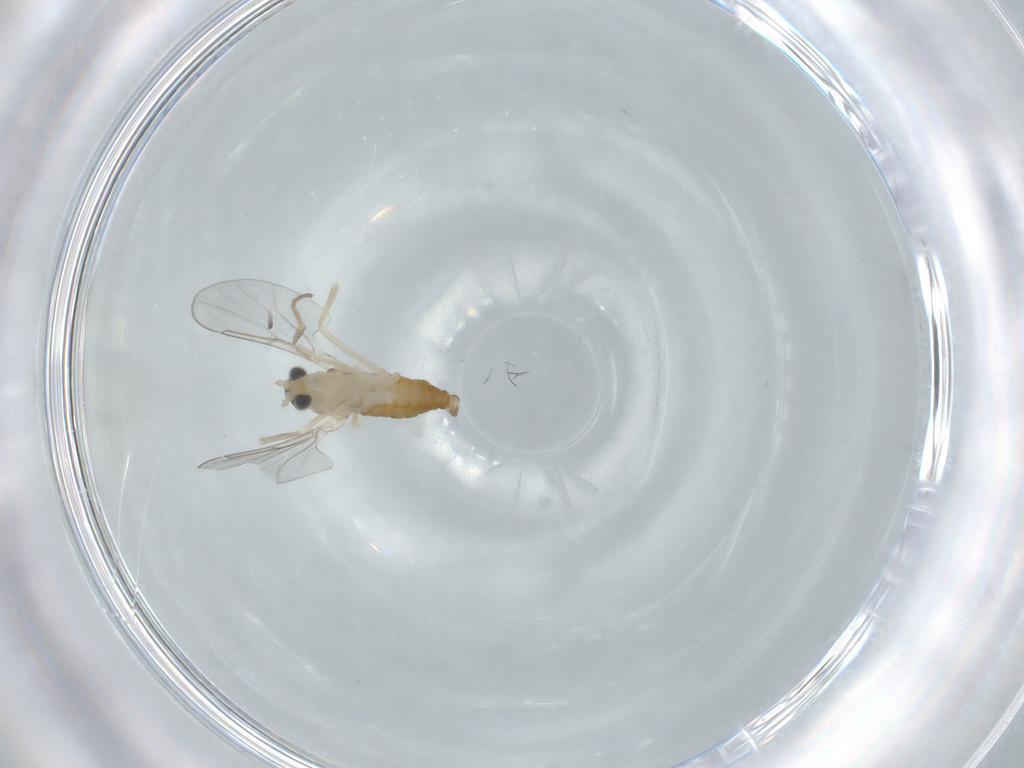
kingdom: Animalia
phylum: Arthropoda
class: Insecta
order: Diptera
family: Cecidomyiidae
